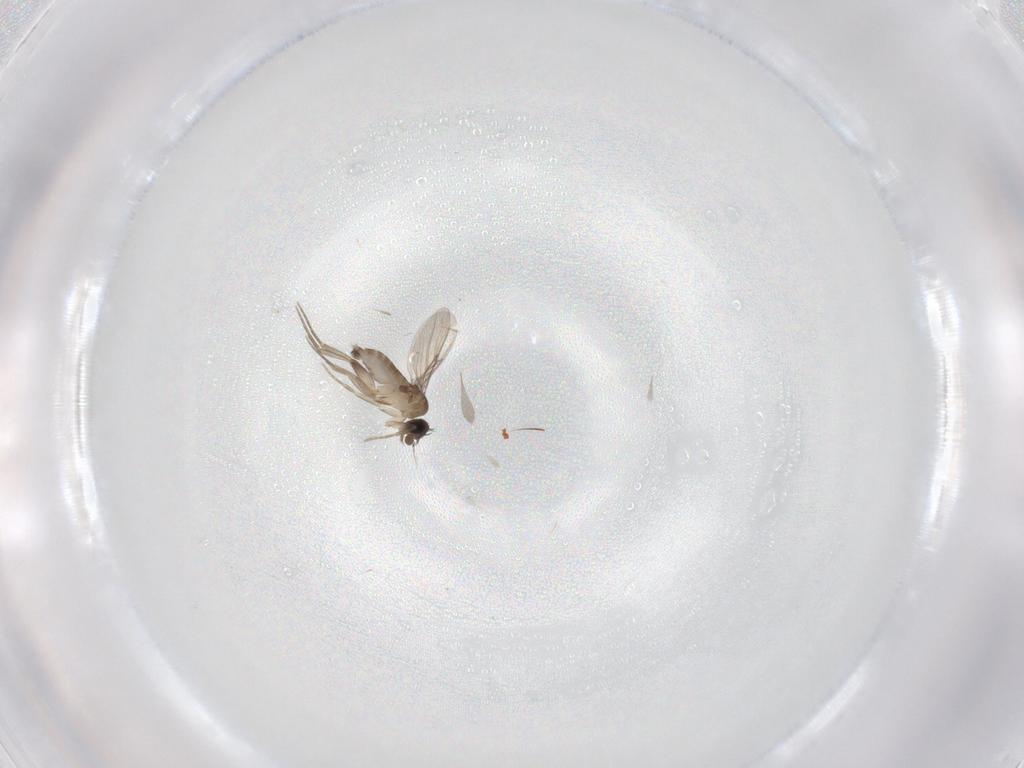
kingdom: Animalia
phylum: Arthropoda
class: Insecta
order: Diptera
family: Phoridae
